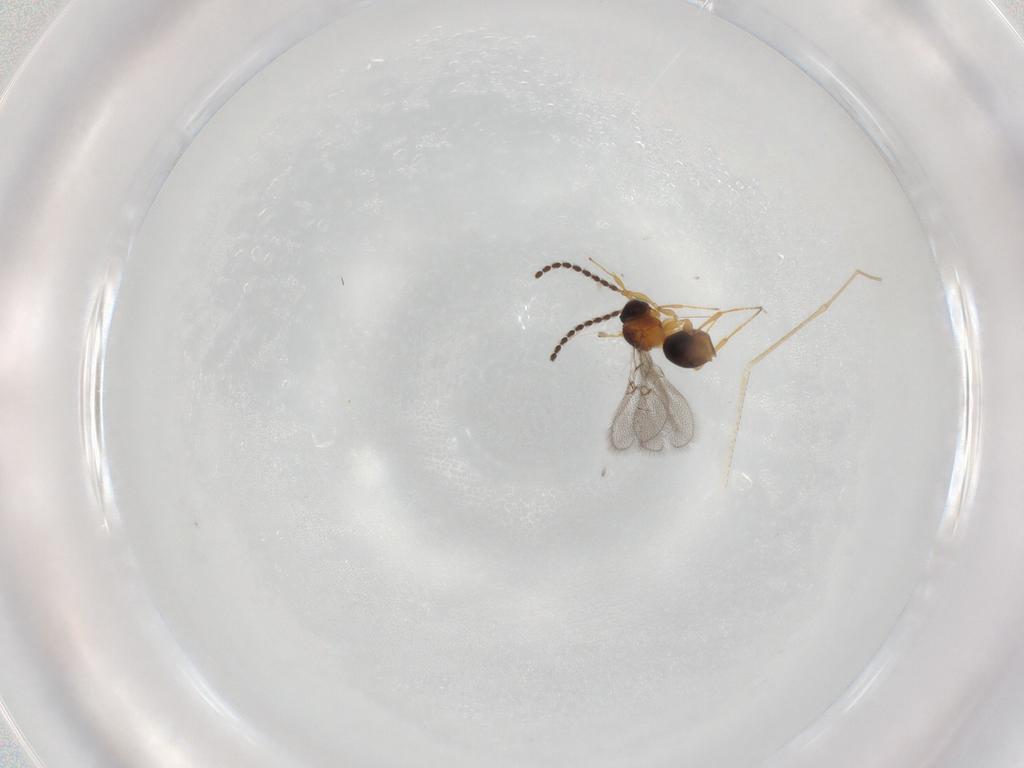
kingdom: Animalia
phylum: Arthropoda
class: Insecta
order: Hymenoptera
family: Figitidae
